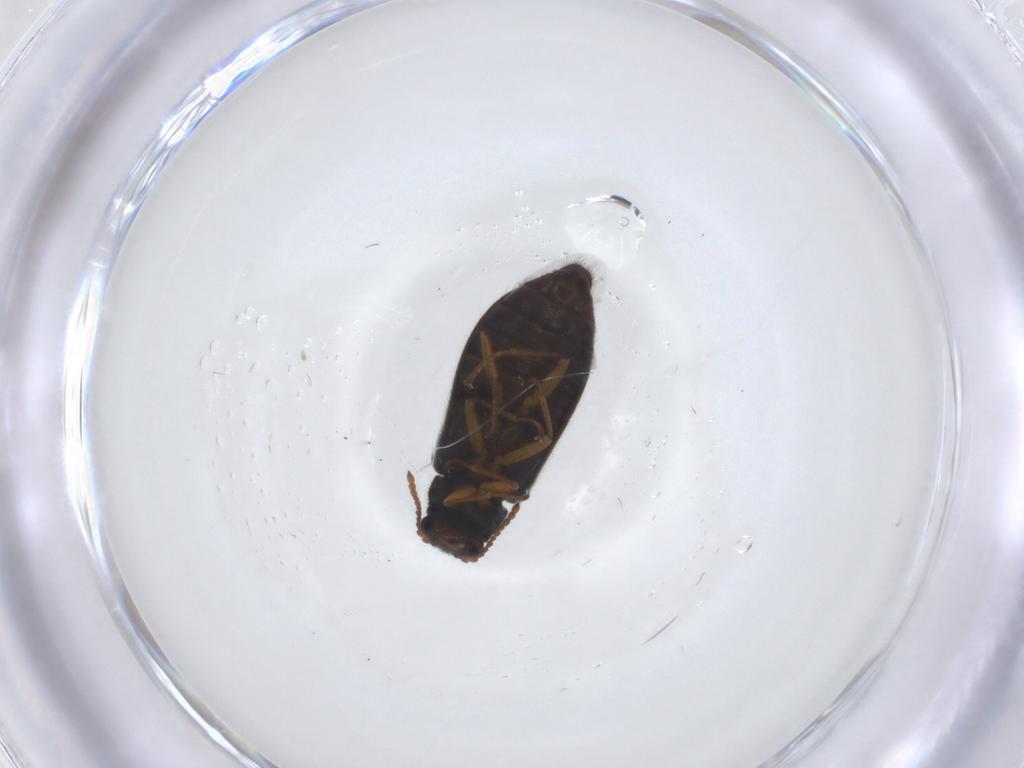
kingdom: Animalia
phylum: Arthropoda
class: Insecta
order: Coleoptera
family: Melyridae
